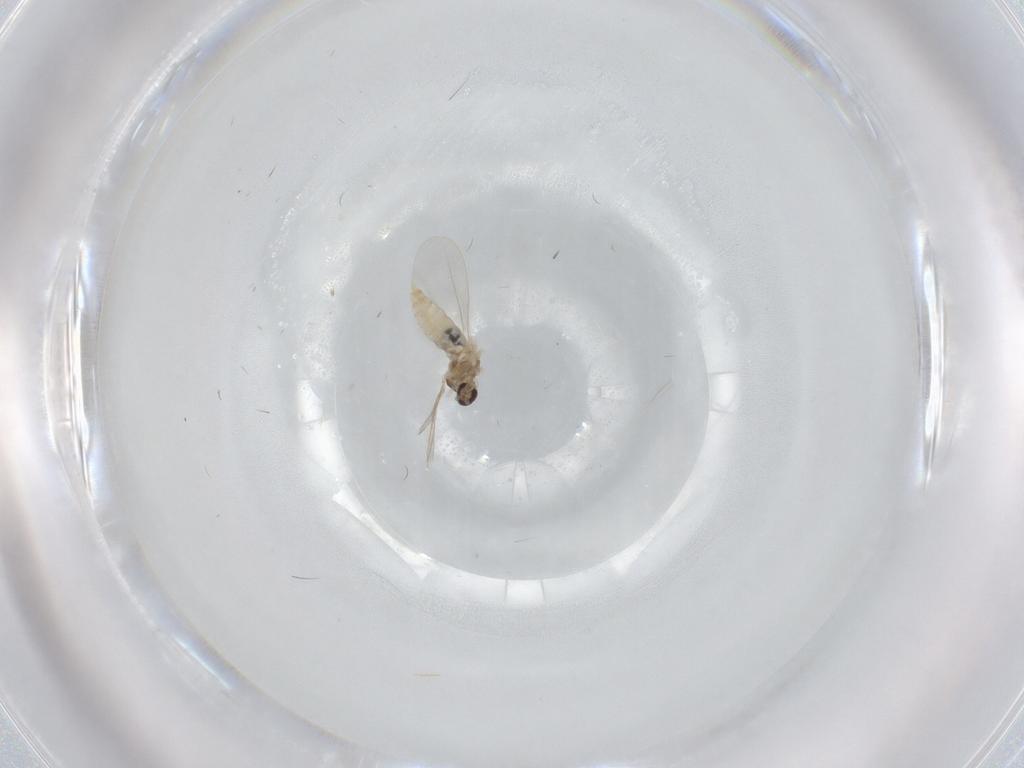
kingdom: Animalia
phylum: Arthropoda
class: Insecta
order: Diptera
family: Cecidomyiidae
